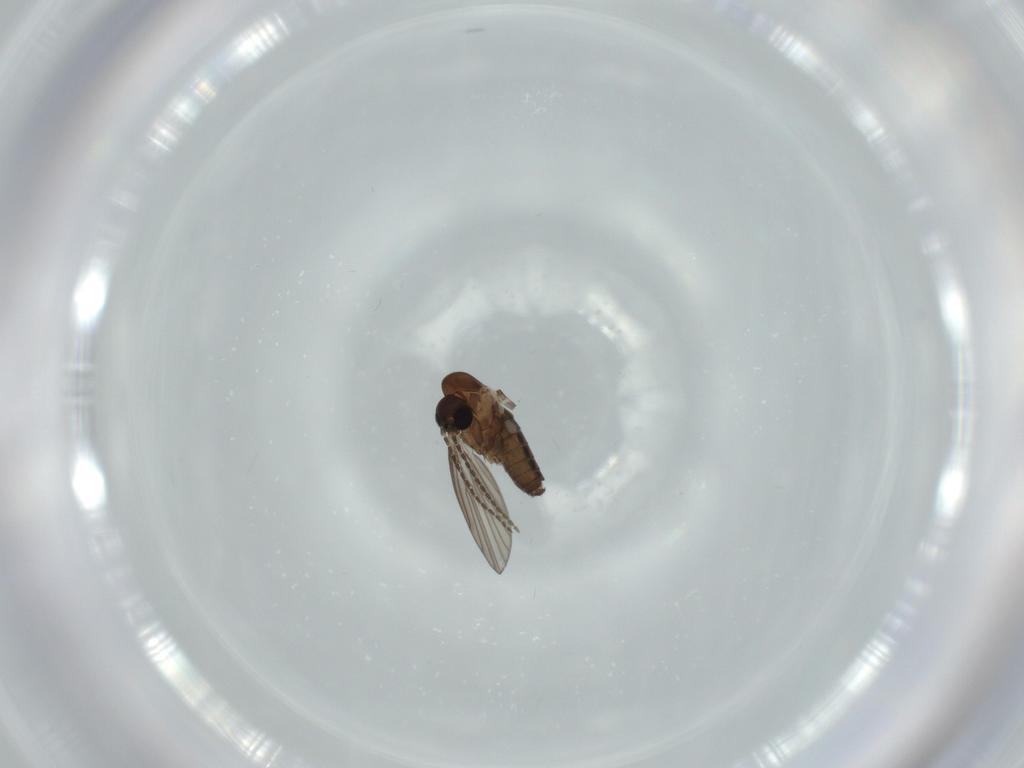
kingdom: Animalia
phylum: Arthropoda
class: Insecta
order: Diptera
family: Psychodidae
